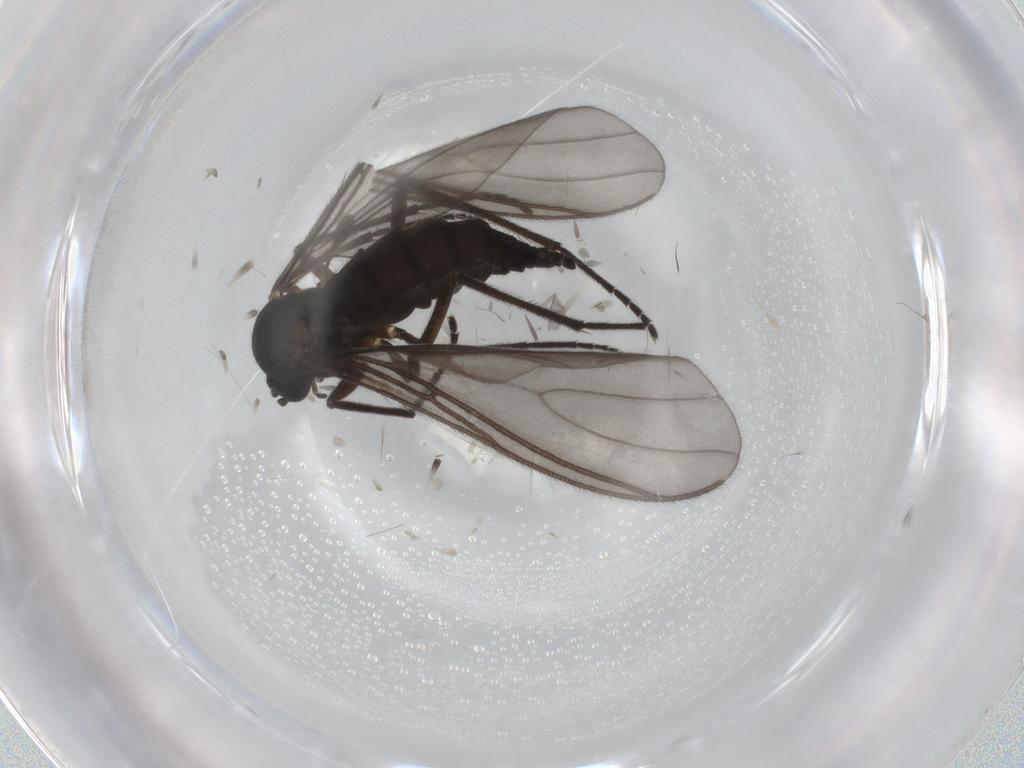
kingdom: Animalia
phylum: Arthropoda
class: Insecta
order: Diptera
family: Sciaridae
